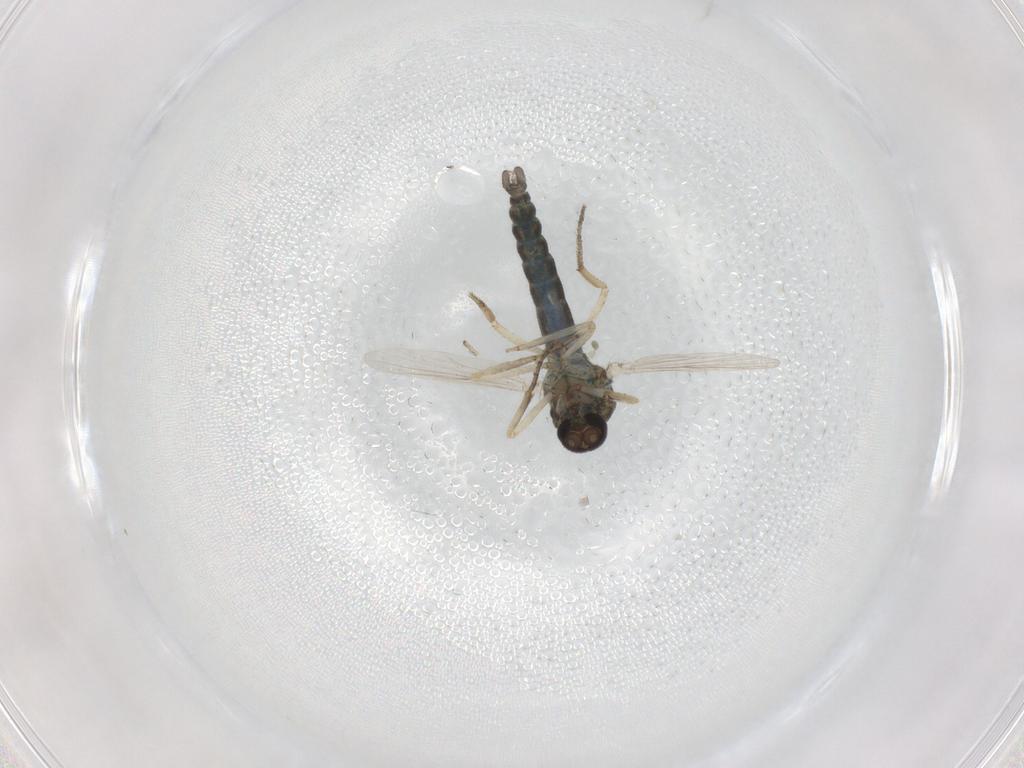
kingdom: Animalia
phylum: Arthropoda
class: Insecta
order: Diptera
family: Ceratopogonidae
